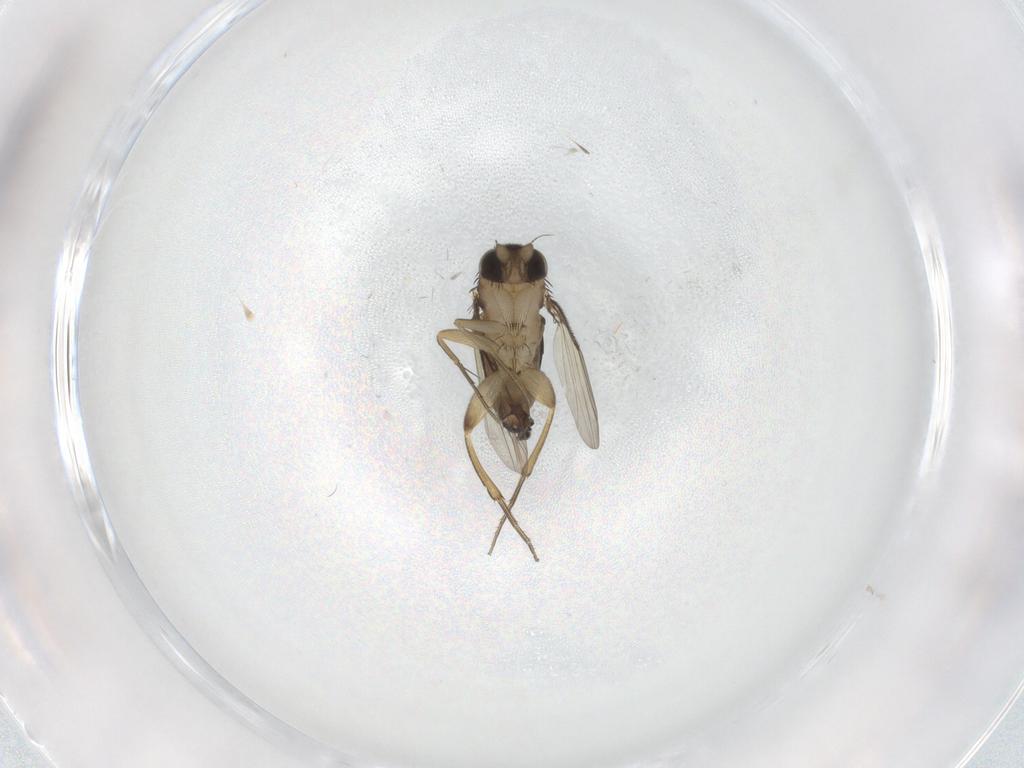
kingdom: Animalia
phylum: Arthropoda
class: Insecta
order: Diptera
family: Phoridae
